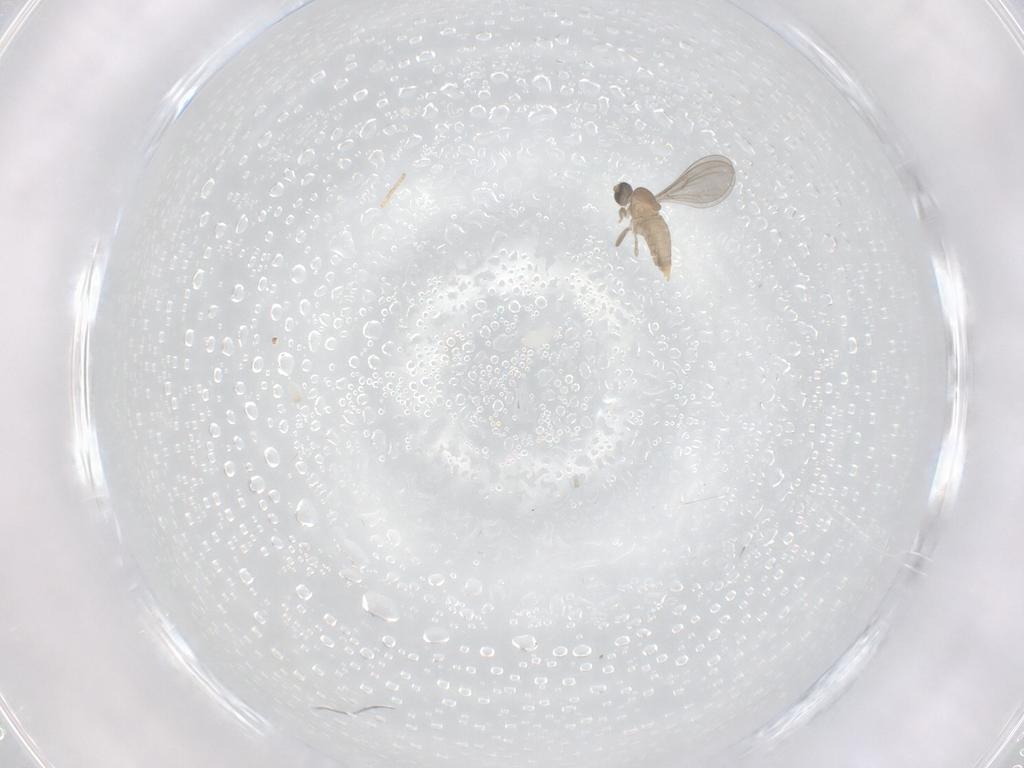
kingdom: Animalia
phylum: Arthropoda
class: Insecta
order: Diptera
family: Cecidomyiidae
